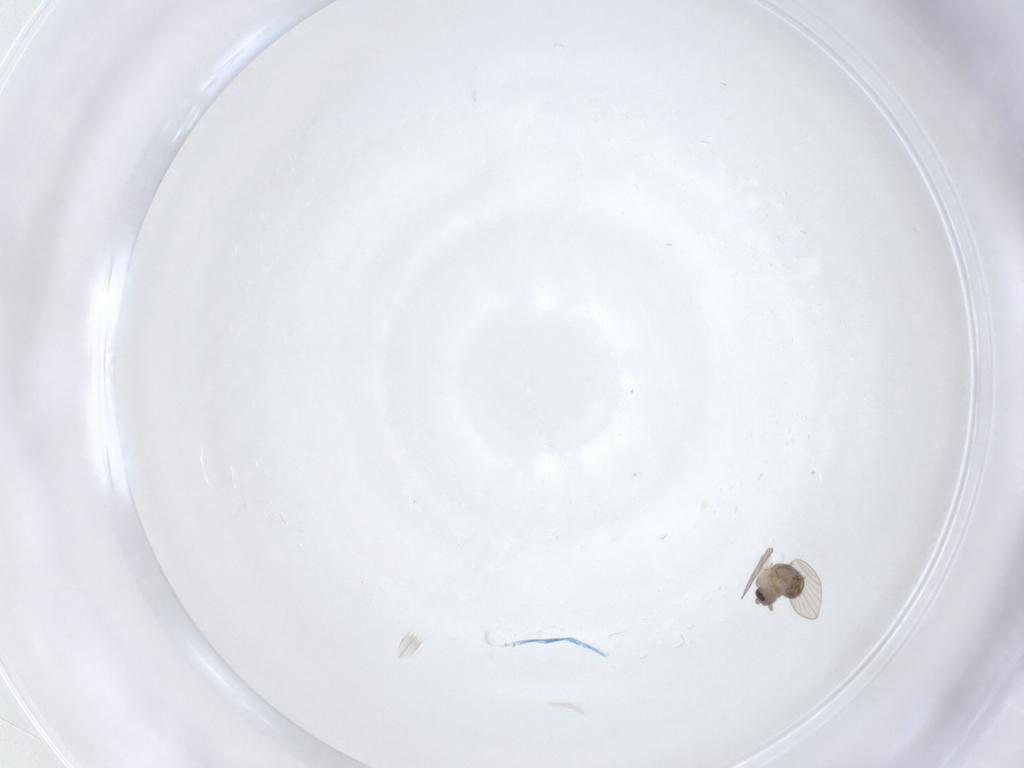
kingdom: Animalia
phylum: Arthropoda
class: Insecta
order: Diptera
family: Psychodidae
